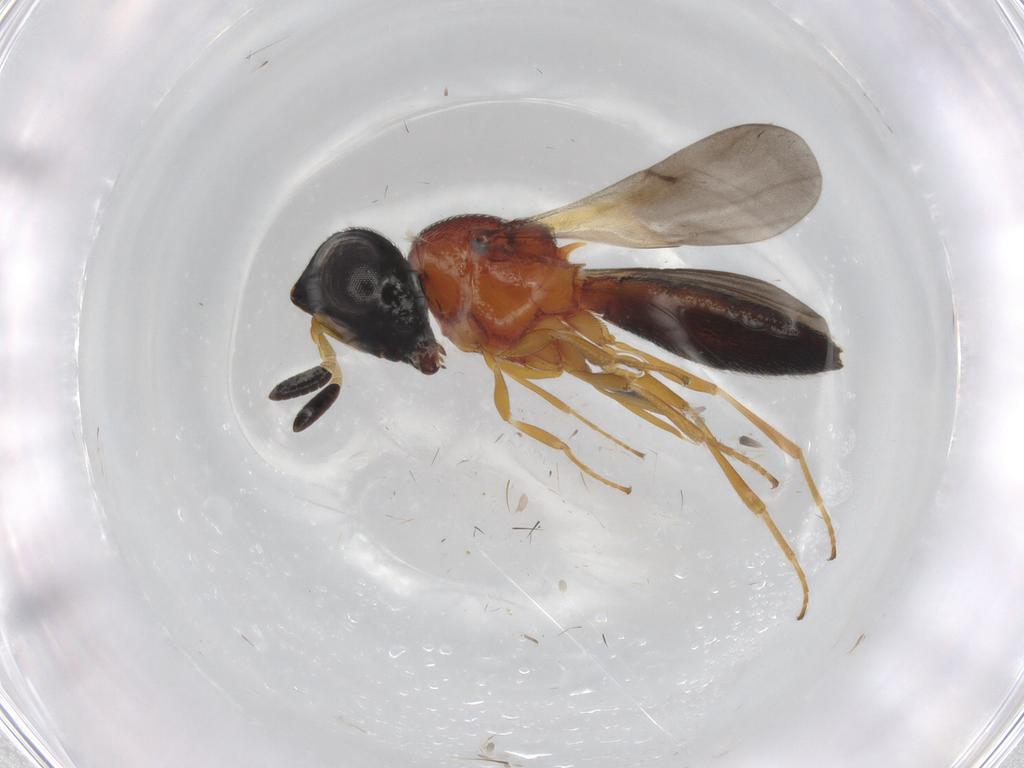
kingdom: Animalia
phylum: Arthropoda
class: Insecta
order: Hymenoptera
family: Pompilidae
